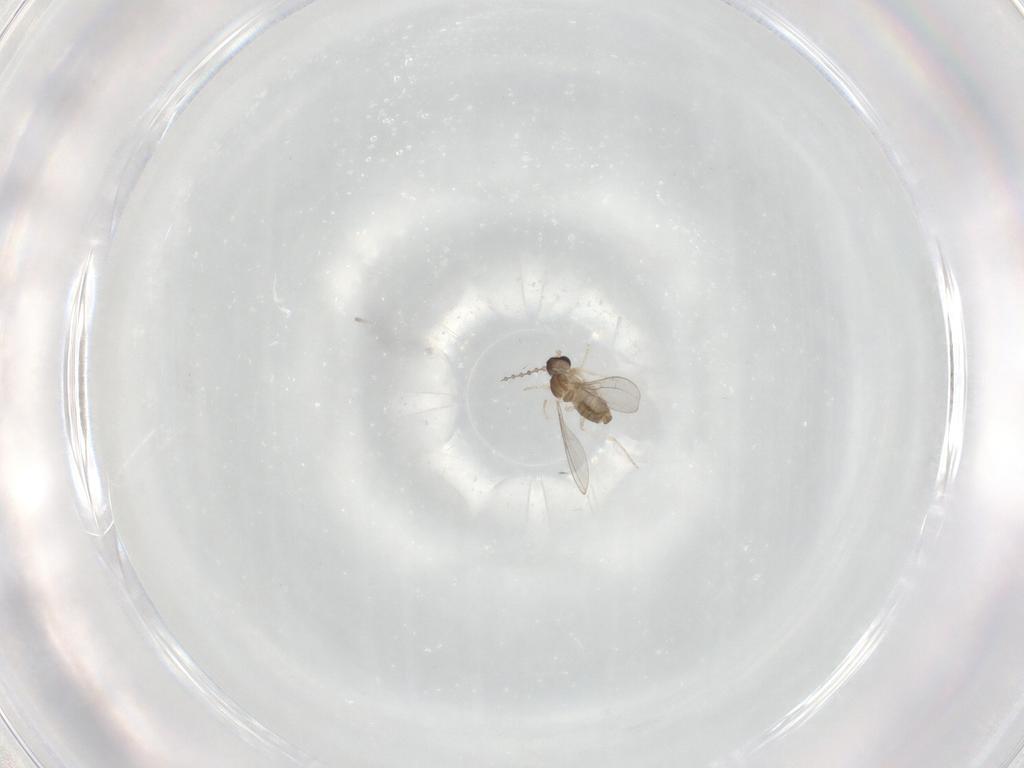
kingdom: Animalia
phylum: Arthropoda
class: Insecta
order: Diptera
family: Cecidomyiidae
